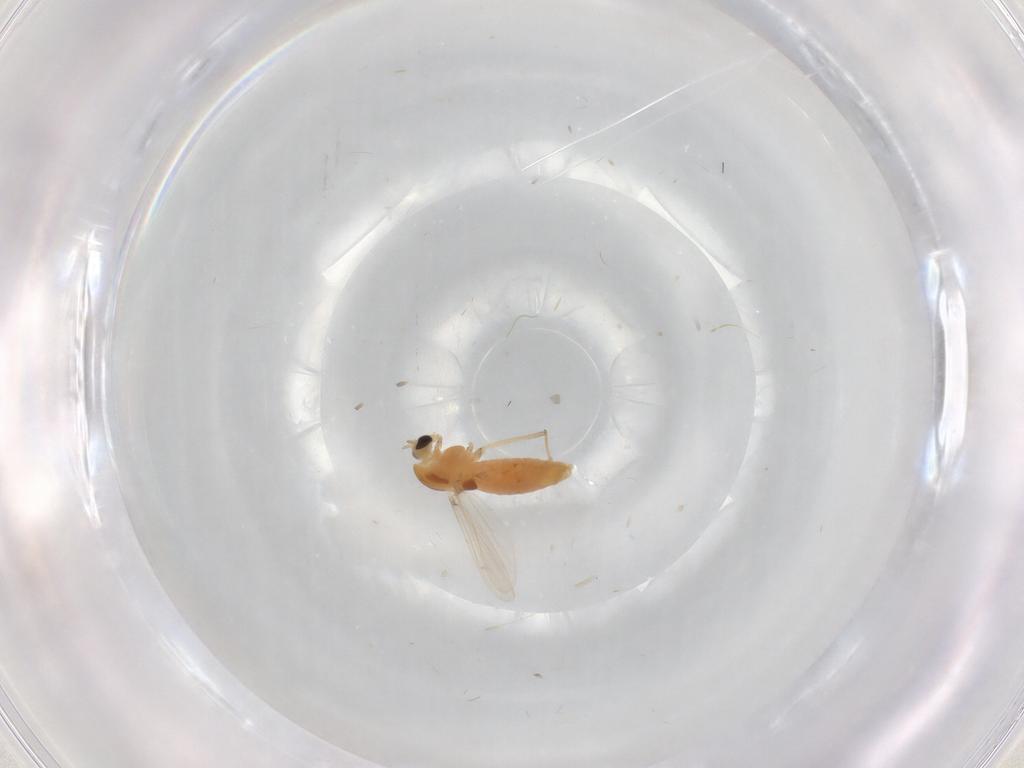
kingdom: Animalia
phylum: Arthropoda
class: Insecta
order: Diptera
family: Chironomidae
